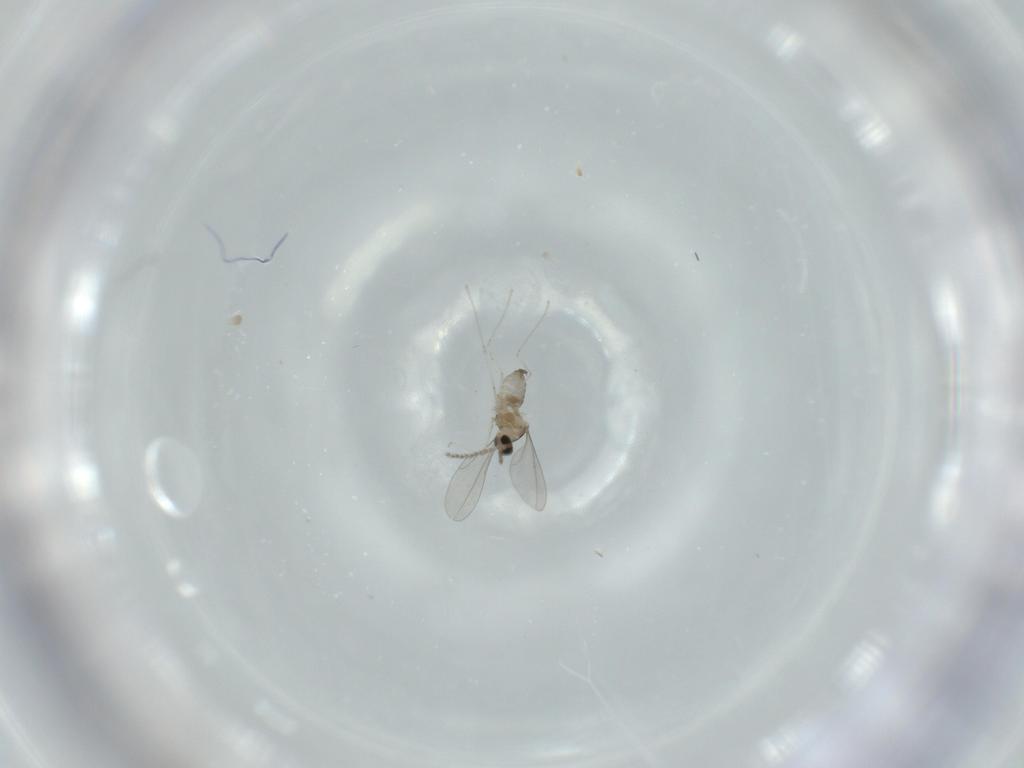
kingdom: Animalia
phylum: Arthropoda
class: Insecta
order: Diptera
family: Cecidomyiidae
